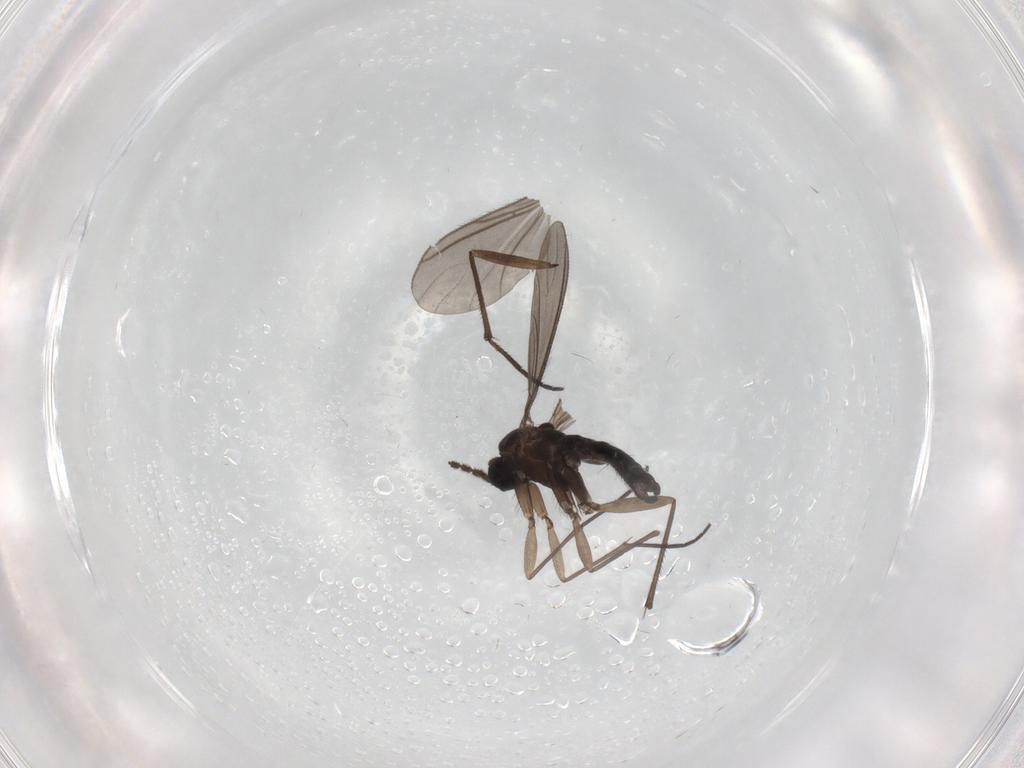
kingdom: Animalia
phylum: Arthropoda
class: Insecta
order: Diptera
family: Sciaridae
